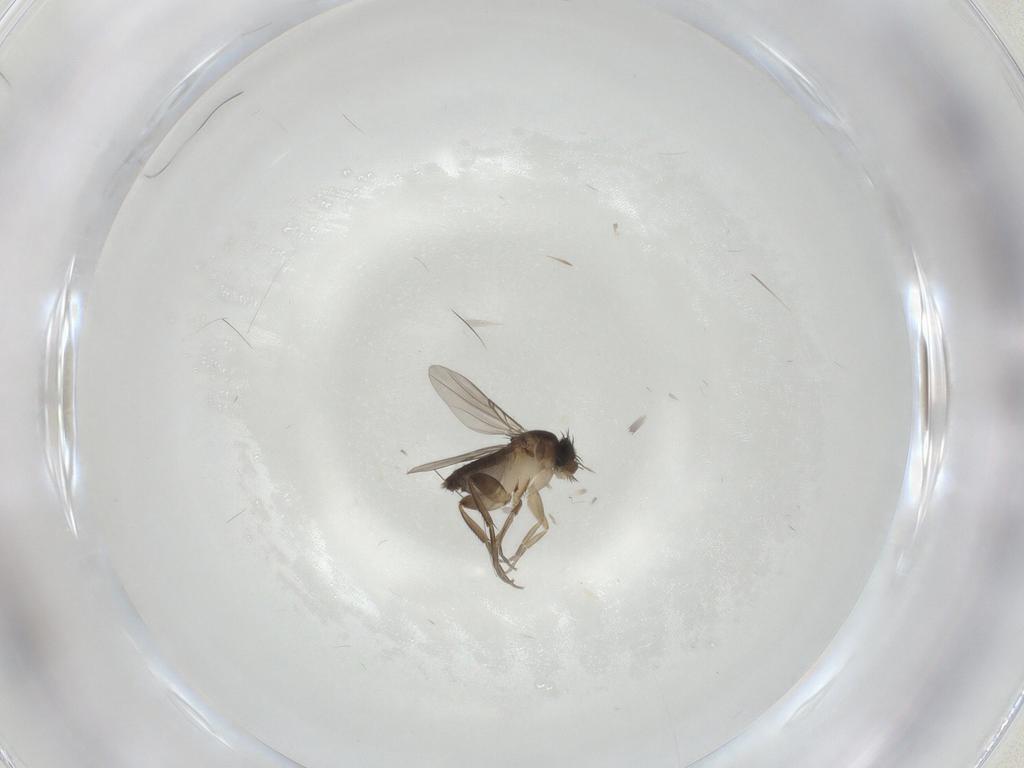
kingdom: Animalia
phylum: Arthropoda
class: Insecta
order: Diptera
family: Phoridae
